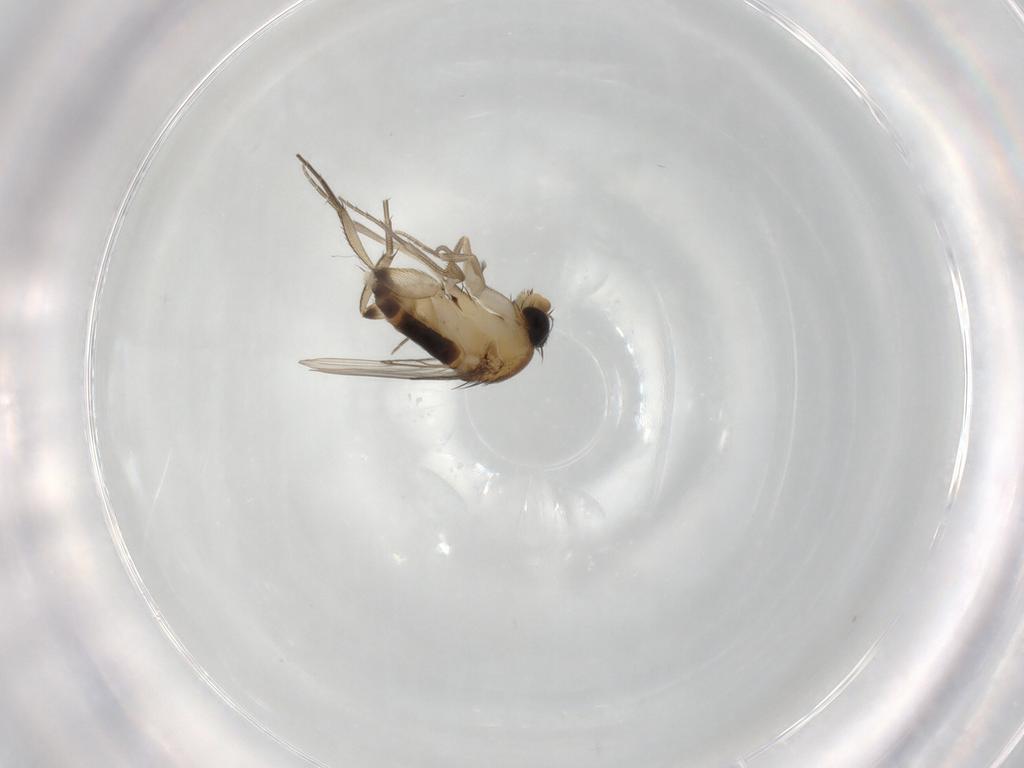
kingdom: Animalia
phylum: Arthropoda
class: Insecta
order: Diptera
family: Phoridae
